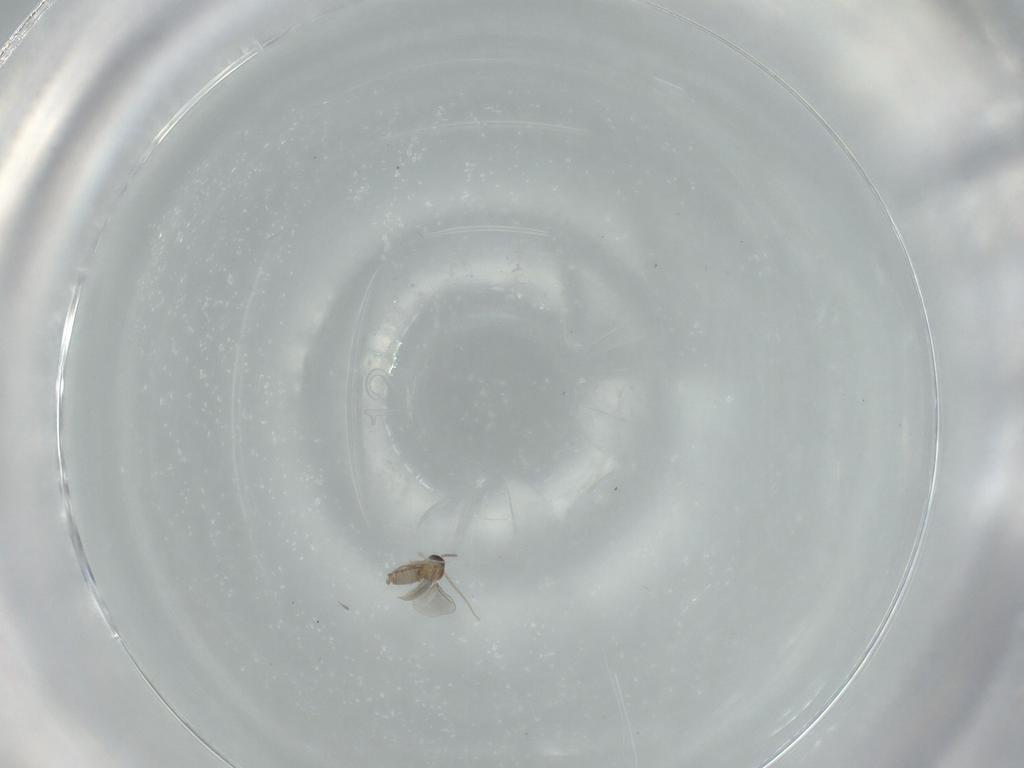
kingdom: Animalia
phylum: Arthropoda
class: Insecta
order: Diptera
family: Cecidomyiidae
